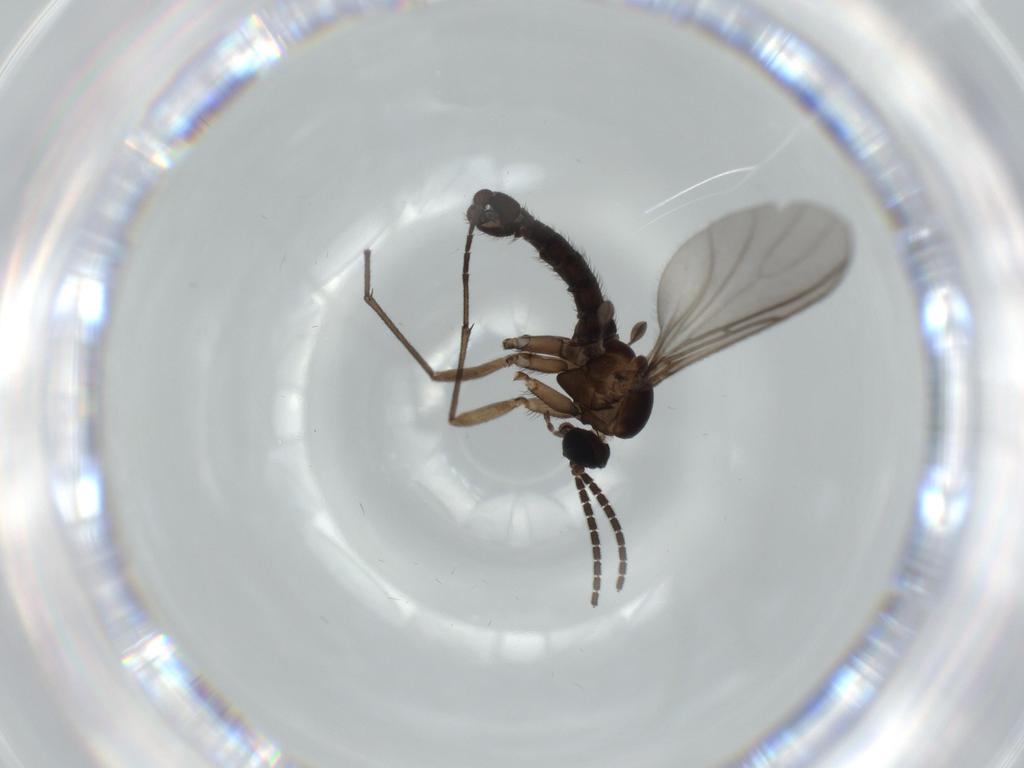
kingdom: Animalia
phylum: Arthropoda
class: Insecta
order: Diptera
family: Sciaridae
